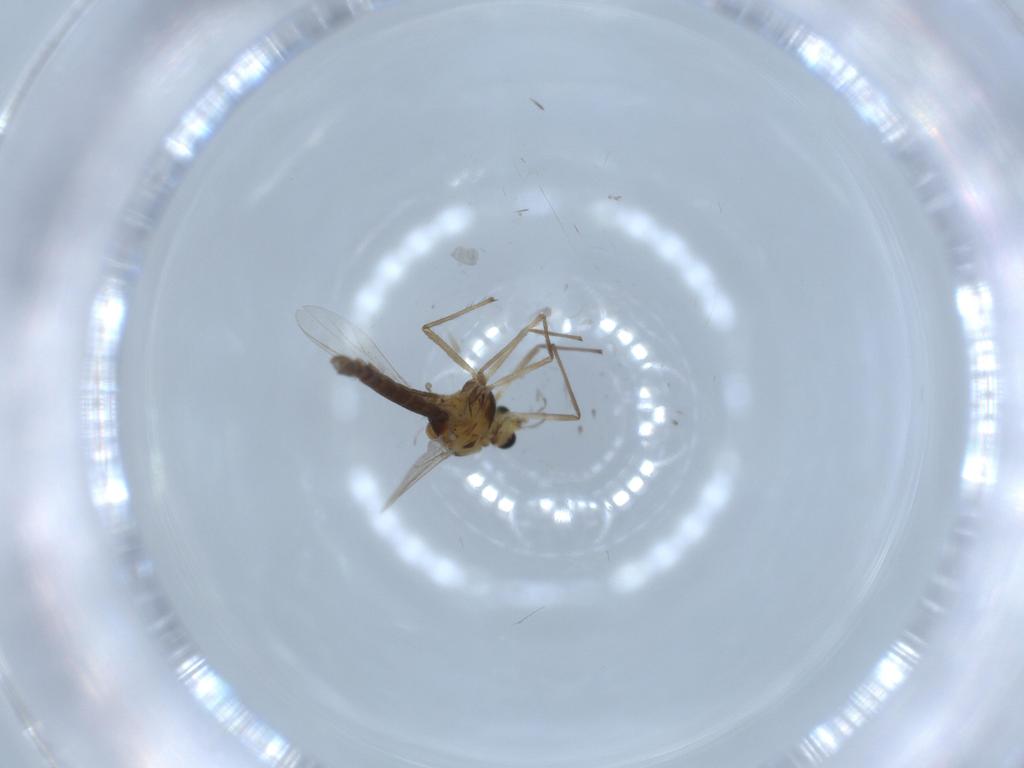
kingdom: Animalia
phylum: Arthropoda
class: Insecta
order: Diptera
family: Chironomidae
